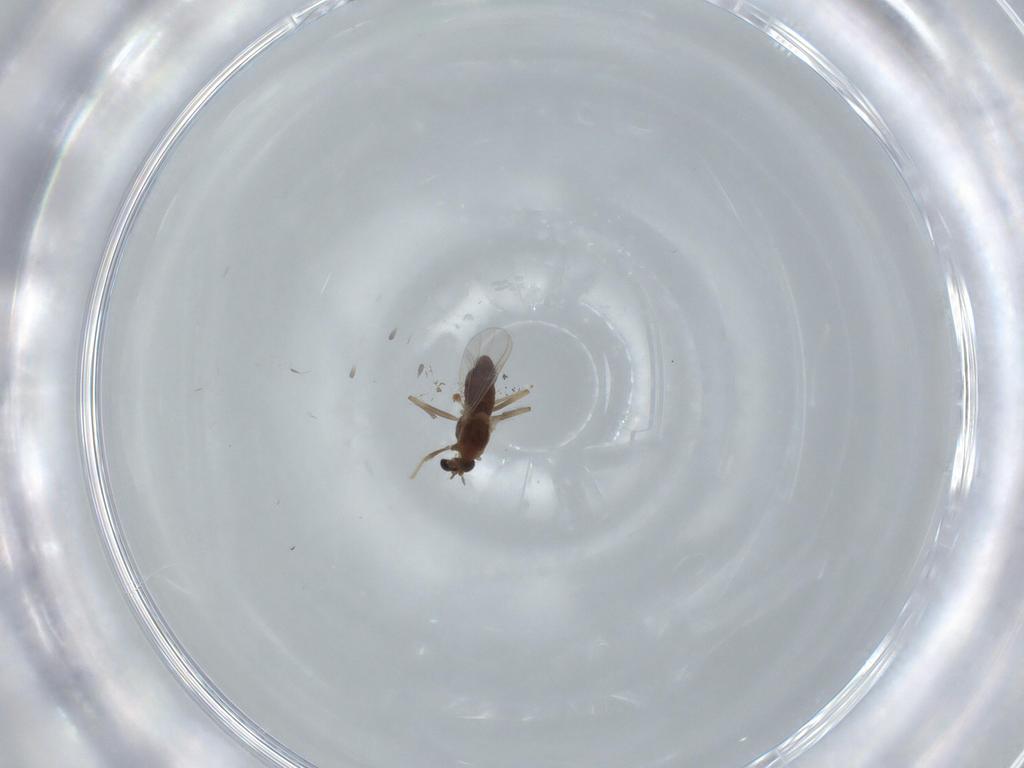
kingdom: Animalia
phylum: Arthropoda
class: Insecta
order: Diptera
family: Chironomidae
